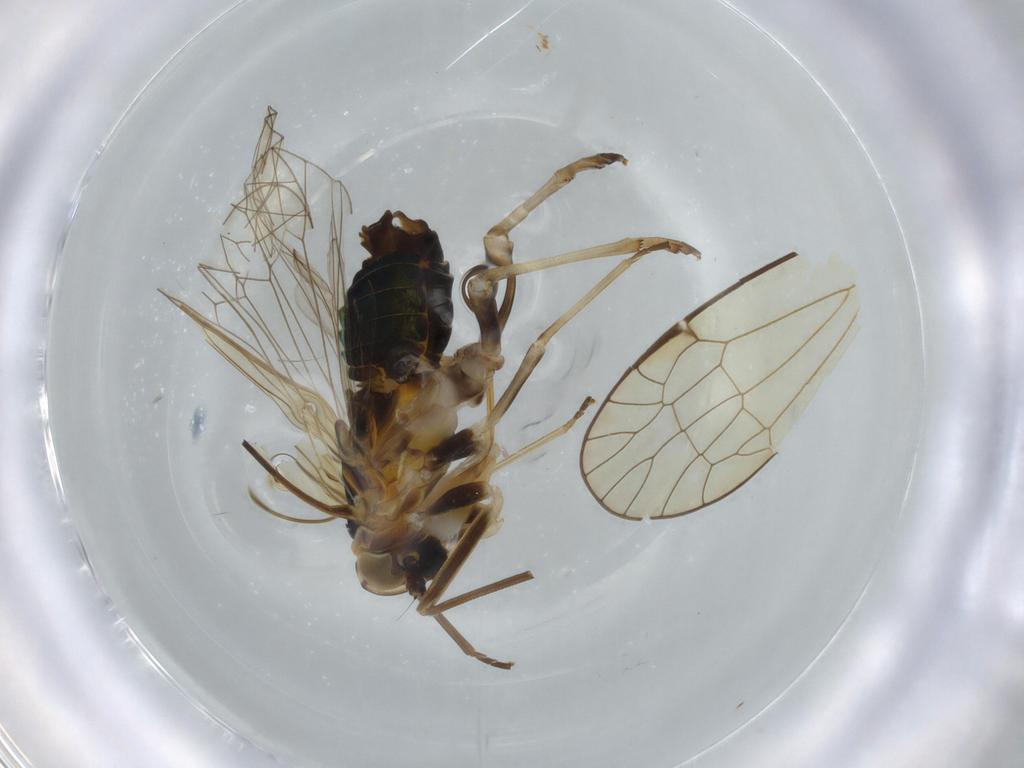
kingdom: Animalia
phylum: Arthropoda
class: Insecta
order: Hemiptera
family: Kinnaridae
